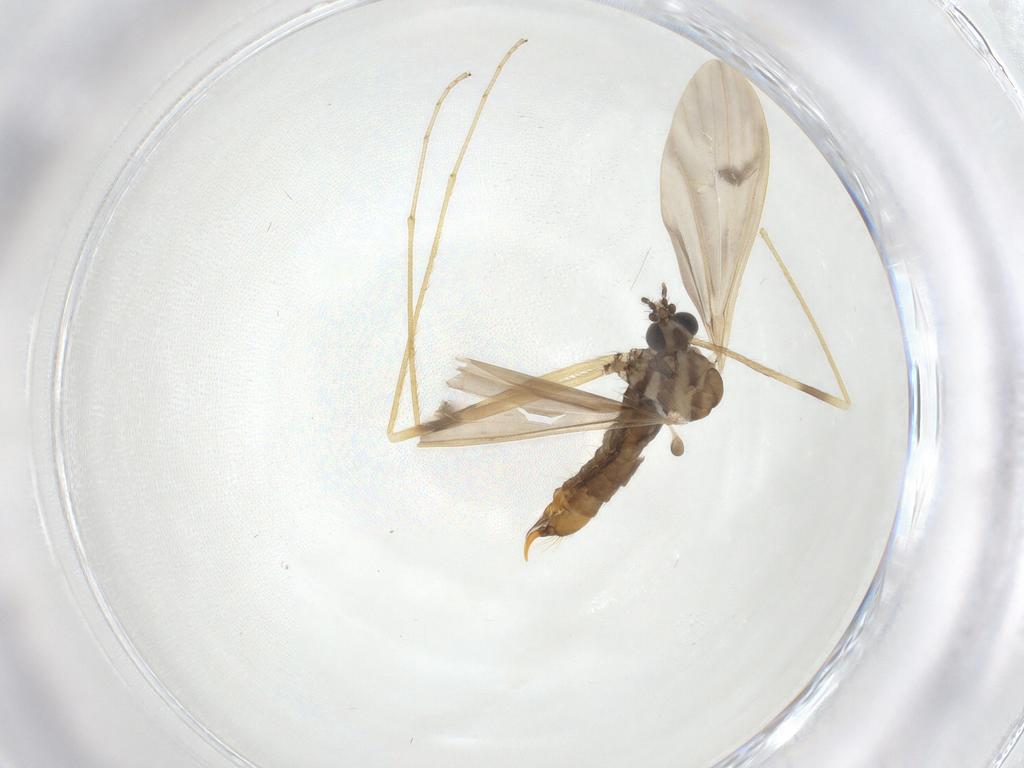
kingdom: Animalia
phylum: Arthropoda
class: Insecta
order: Diptera
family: Limoniidae
